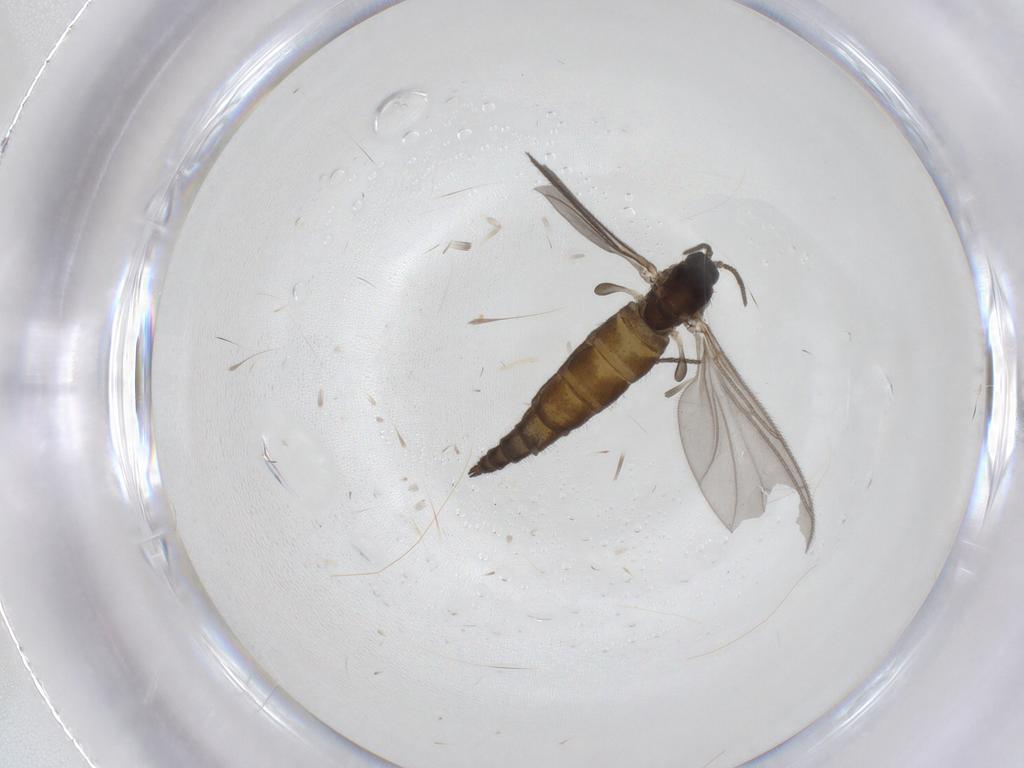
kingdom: Animalia
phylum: Arthropoda
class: Insecta
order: Diptera
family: Sciaridae
